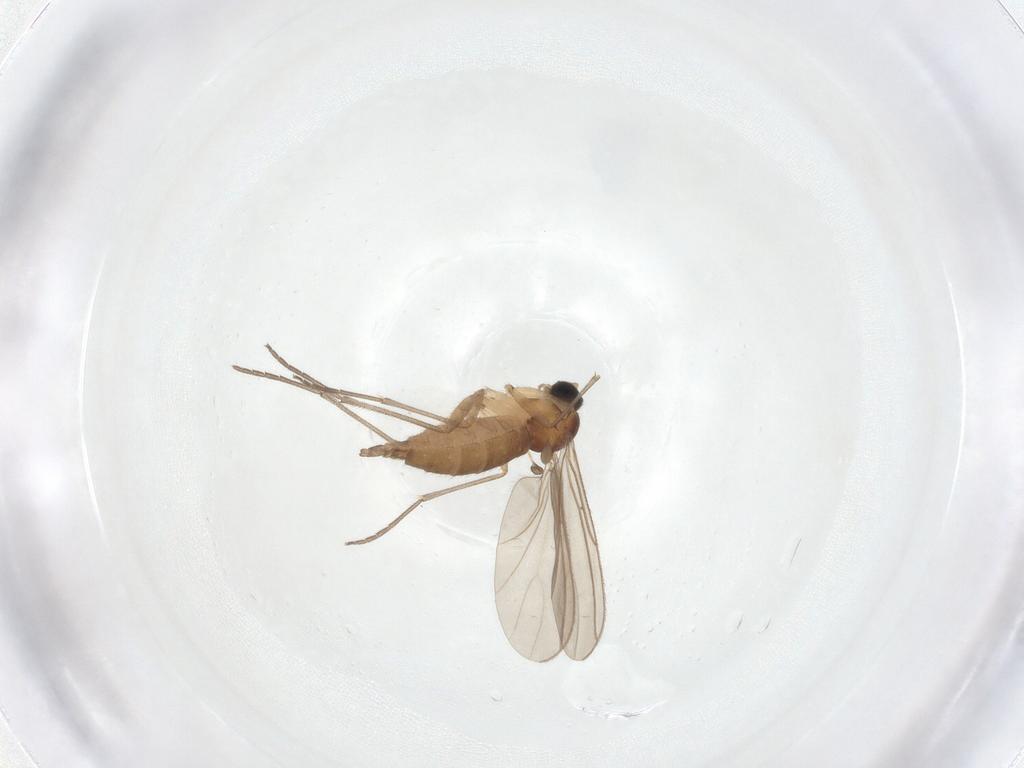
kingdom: Animalia
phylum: Arthropoda
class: Insecta
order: Diptera
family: Sciaridae
